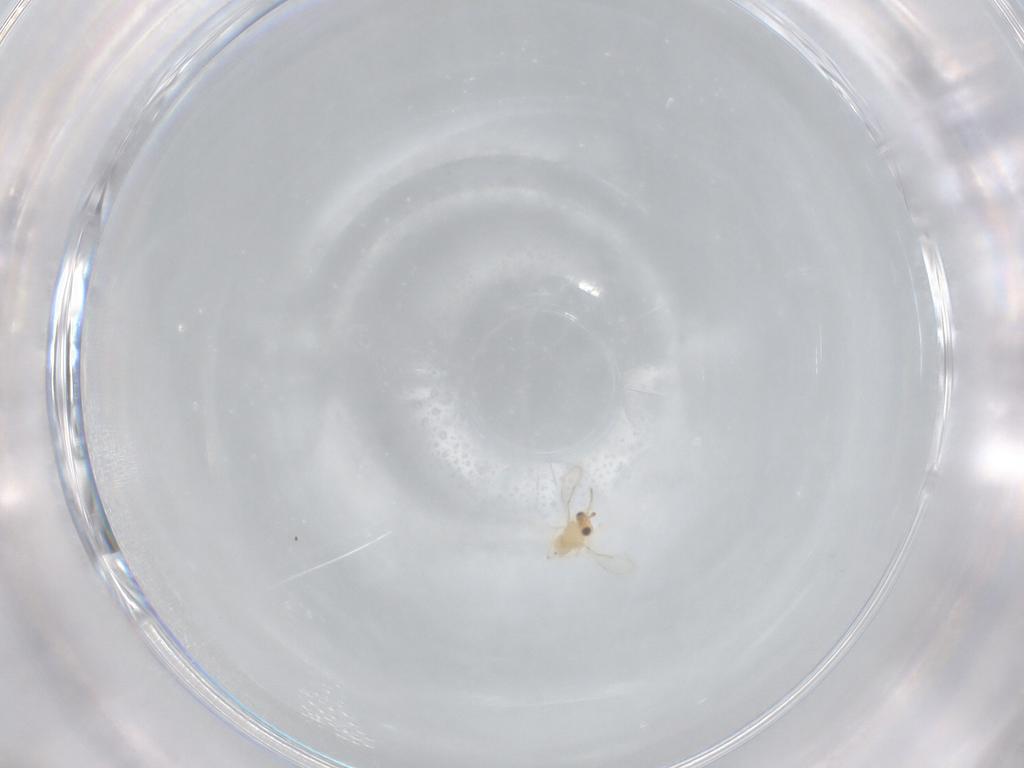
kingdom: Animalia
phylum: Arthropoda
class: Insecta
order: Hymenoptera
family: Aphelinidae
